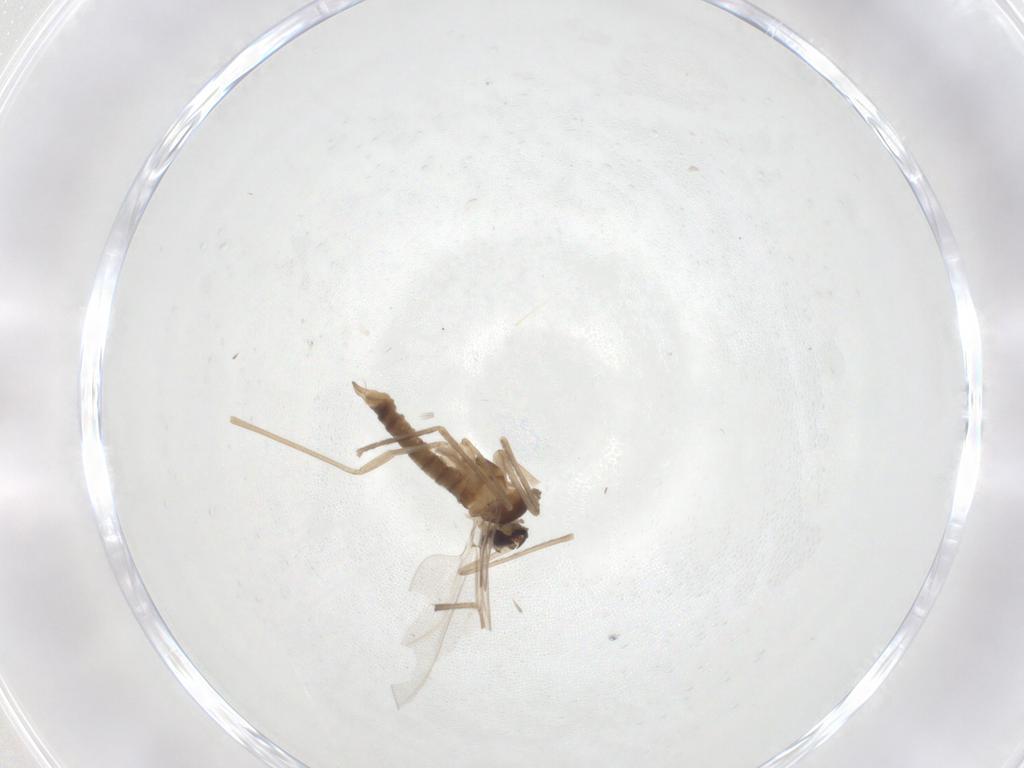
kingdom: Animalia
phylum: Arthropoda
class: Insecta
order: Diptera
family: Cecidomyiidae
